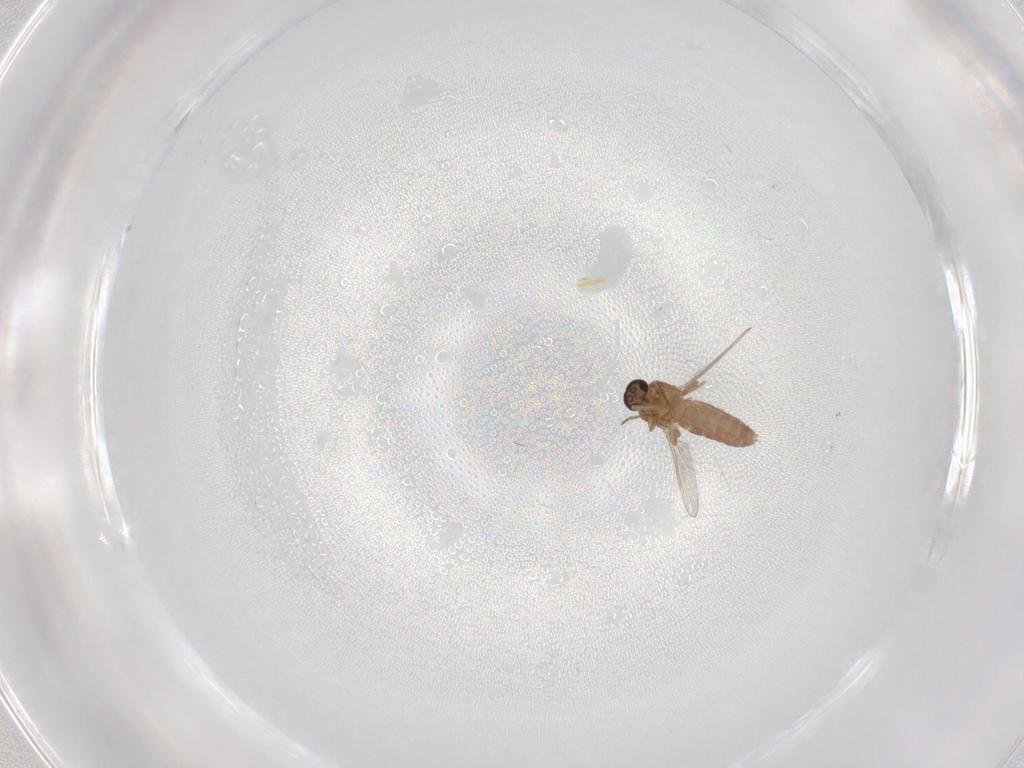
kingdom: Animalia
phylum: Arthropoda
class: Insecta
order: Diptera
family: Ceratopogonidae
